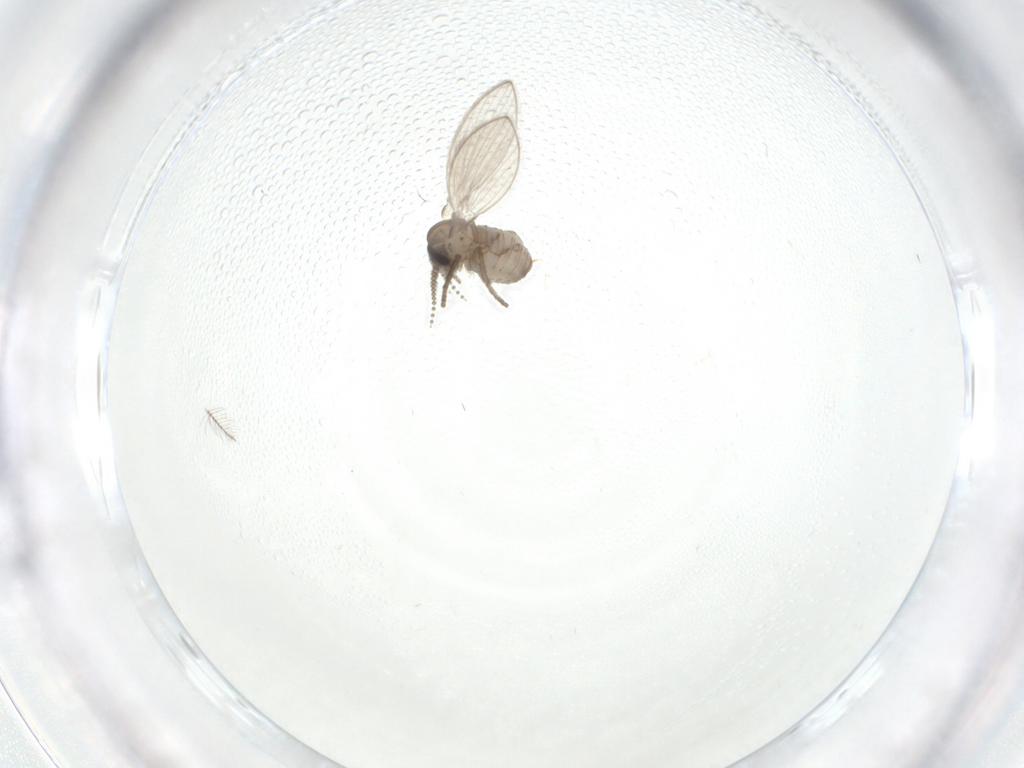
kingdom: Animalia
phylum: Arthropoda
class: Insecta
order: Diptera
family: Psychodidae
